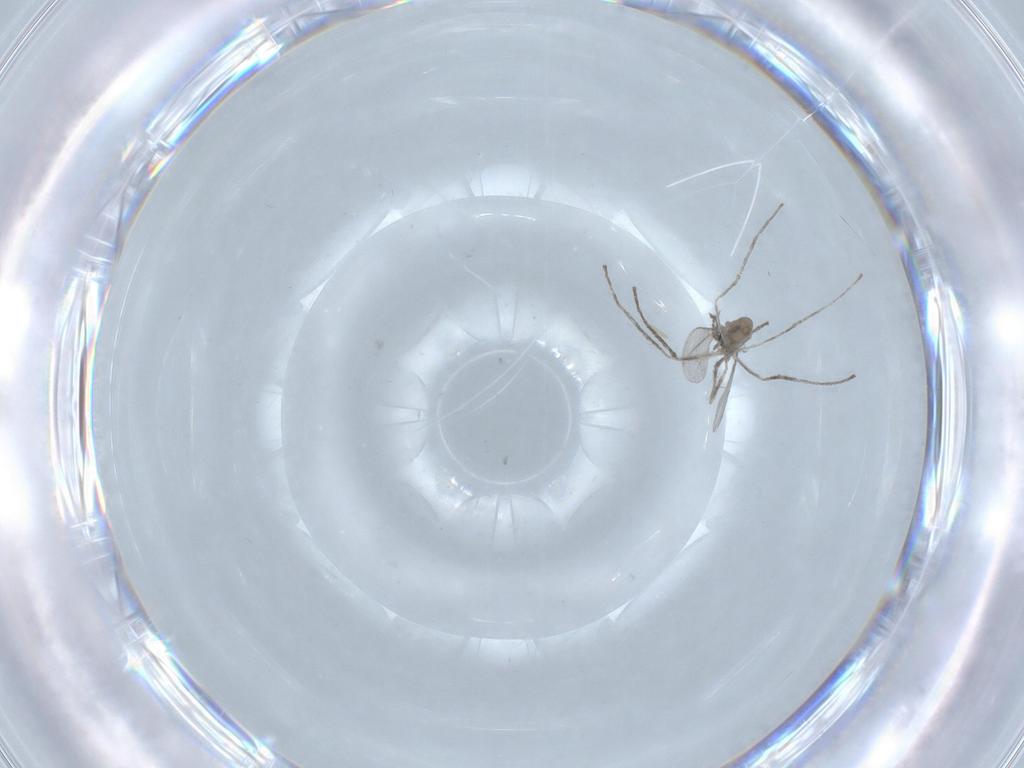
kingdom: Animalia
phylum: Arthropoda
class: Insecta
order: Diptera
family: Cecidomyiidae
